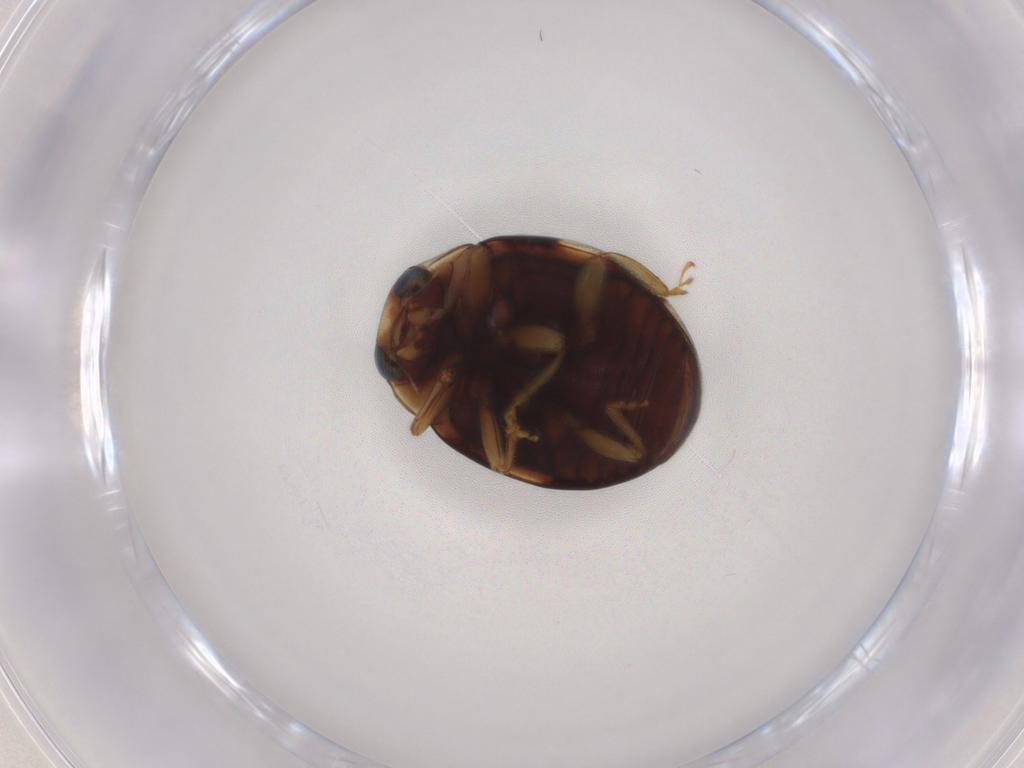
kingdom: Animalia
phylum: Arthropoda
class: Insecta
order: Coleoptera
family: Coccinellidae
